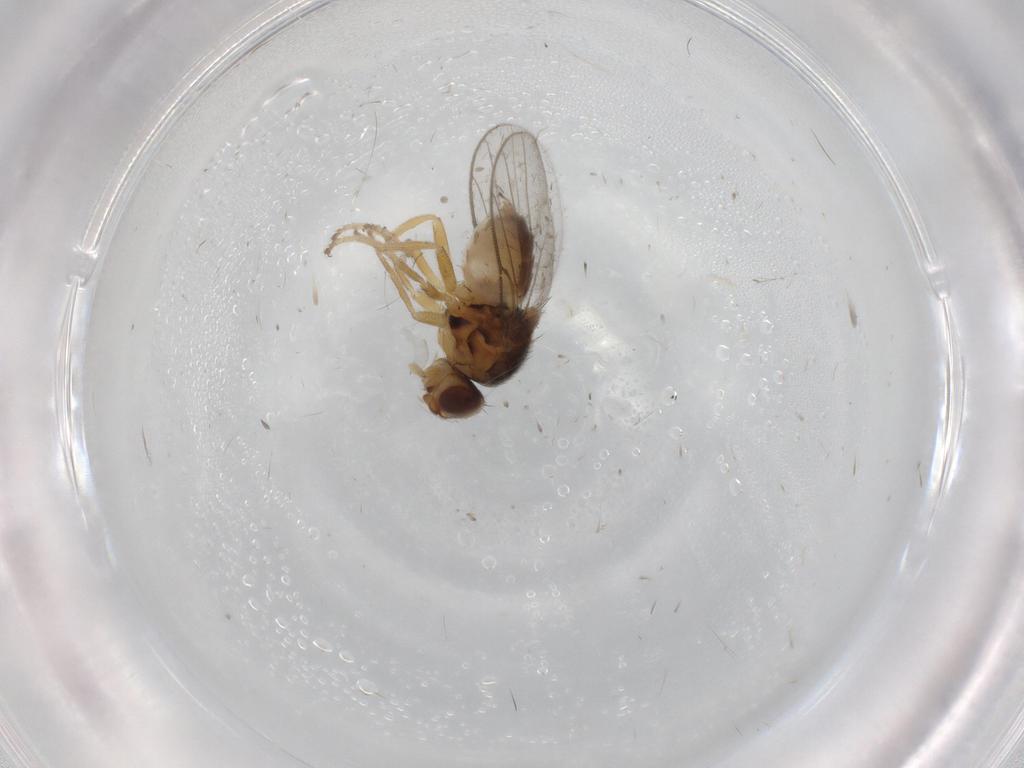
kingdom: Animalia
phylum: Arthropoda
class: Insecta
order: Diptera
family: Chloropidae
